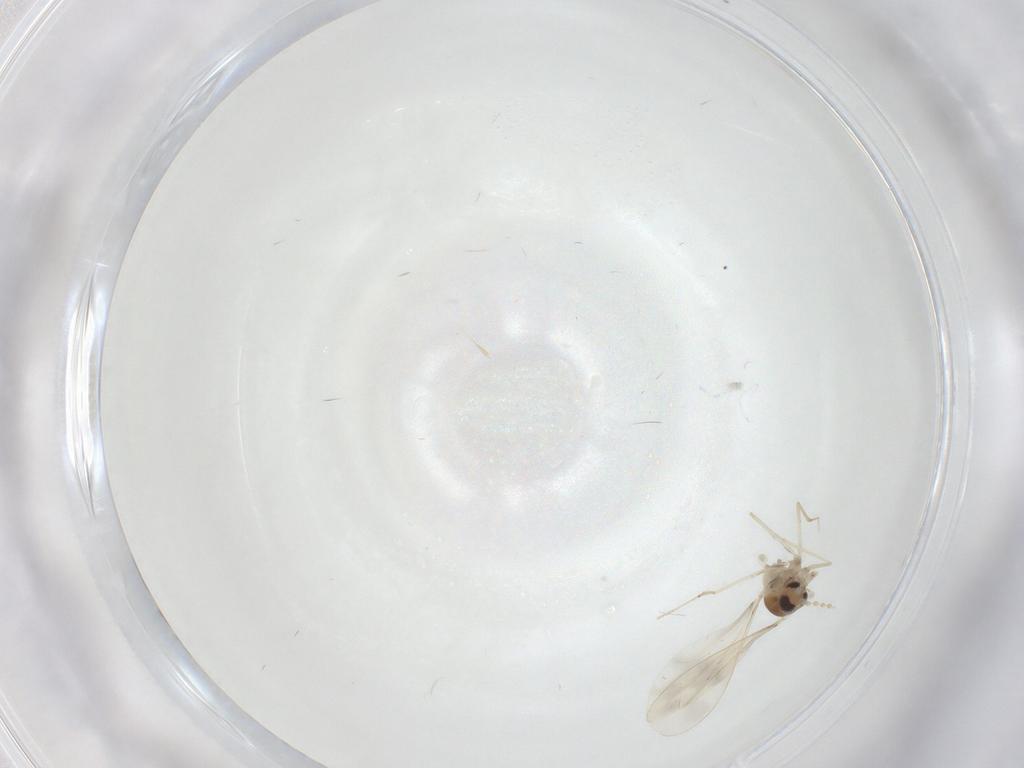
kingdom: Animalia
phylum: Arthropoda
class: Insecta
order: Diptera
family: Cecidomyiidae
